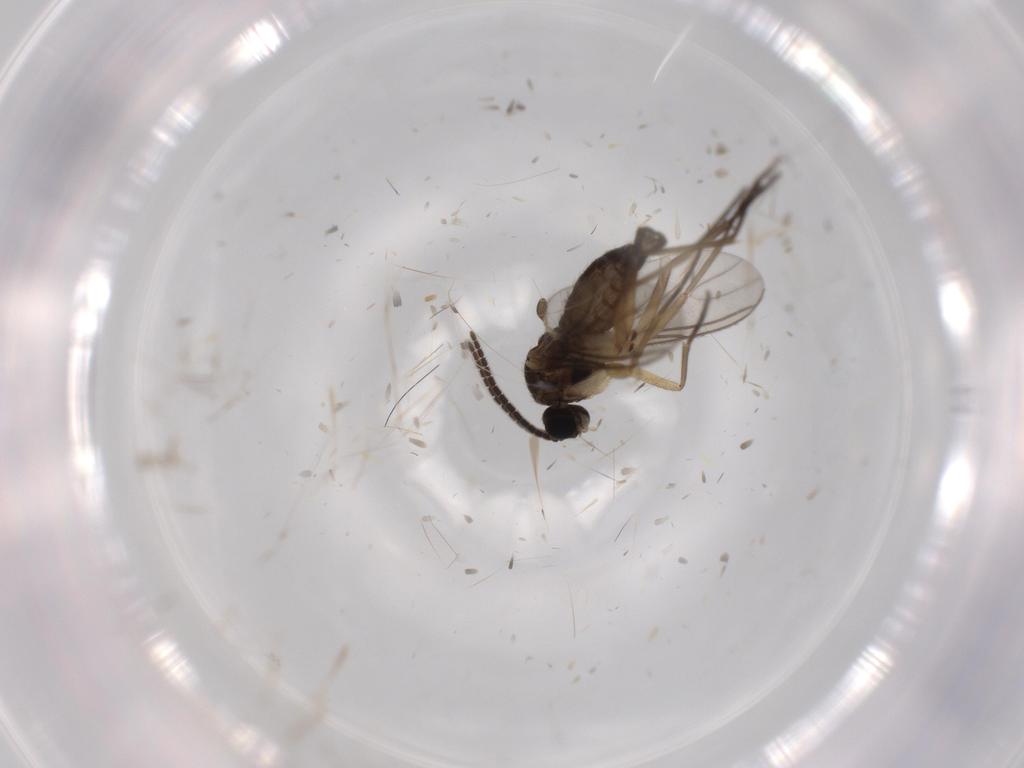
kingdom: Animalia
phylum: Arthropoda
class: Insecta
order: Diptera
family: Sciaridae
